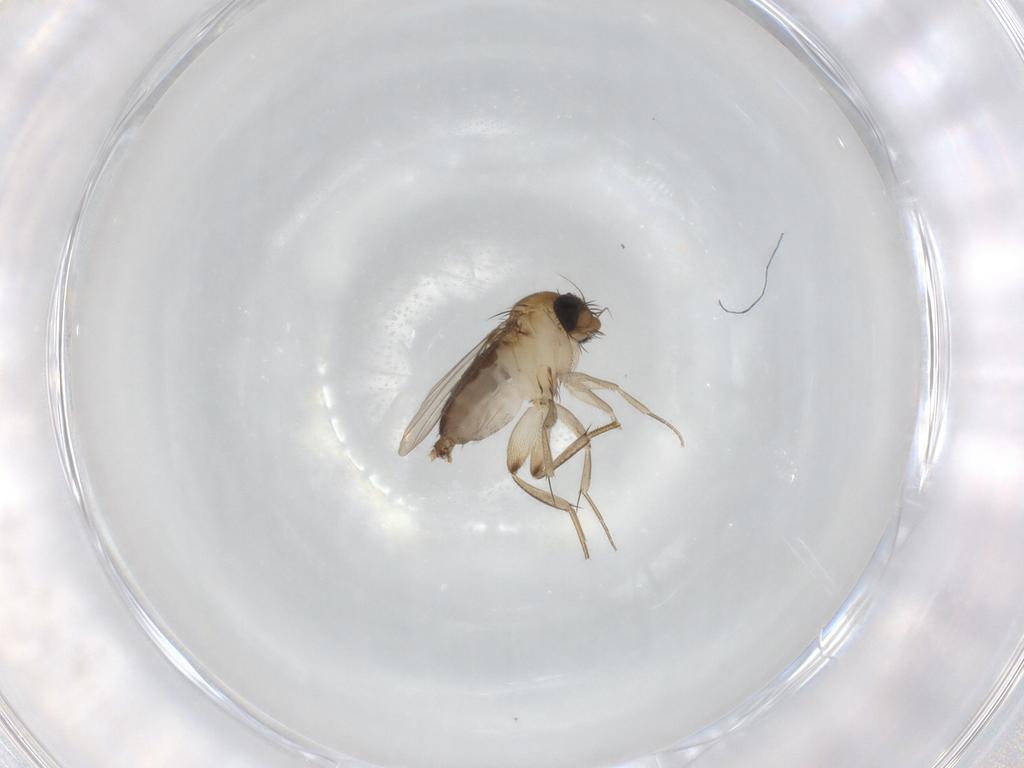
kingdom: Animalia
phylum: Arthropoda
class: Insecta
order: Diptera
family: Phoridae
